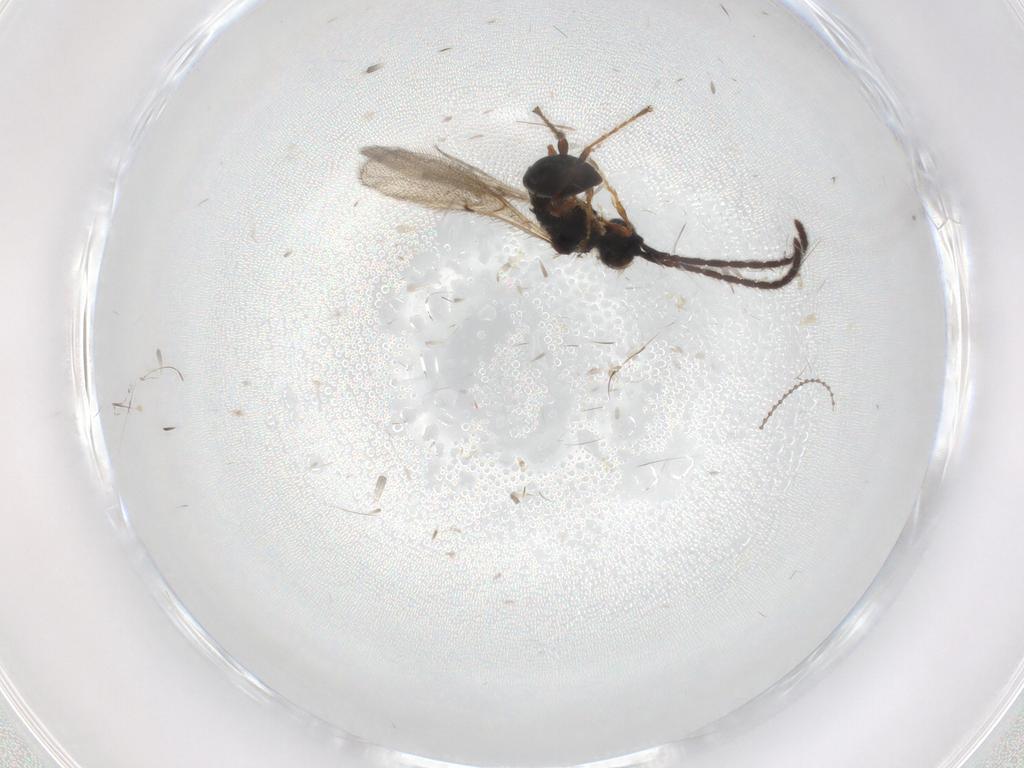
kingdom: Animalia
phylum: Arthropoda
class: Insecta
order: Hymenoptera
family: Diapriidae
